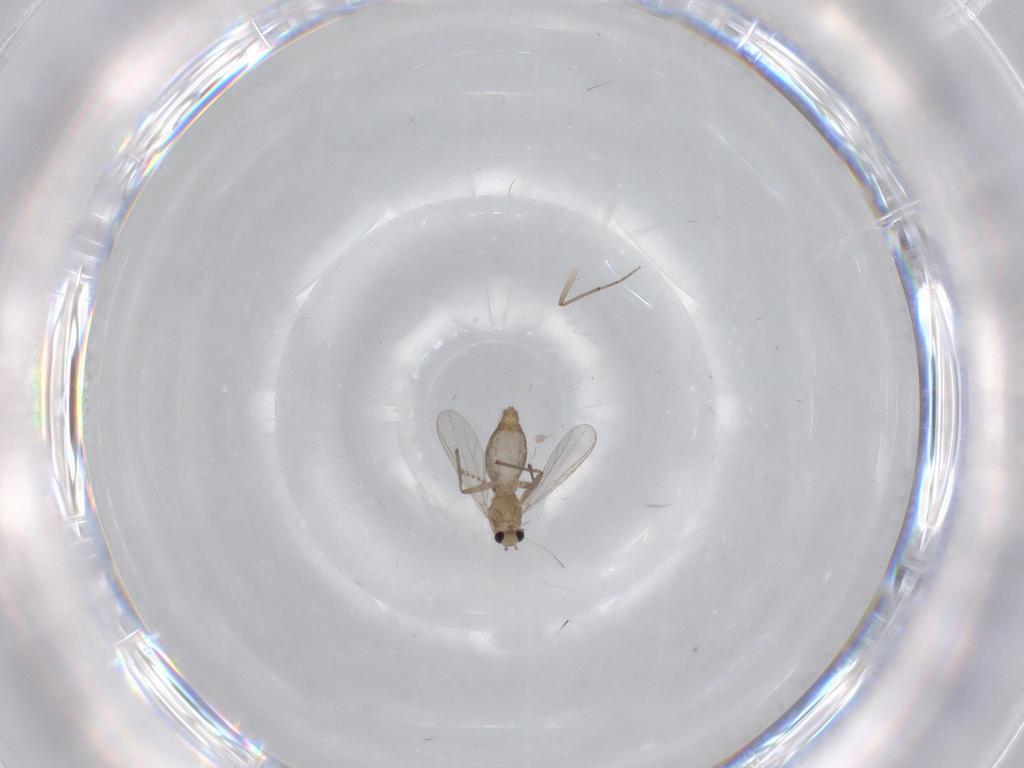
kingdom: Animalia
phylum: Arthropoda
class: Insecta
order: Diptera
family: Chironomidae
